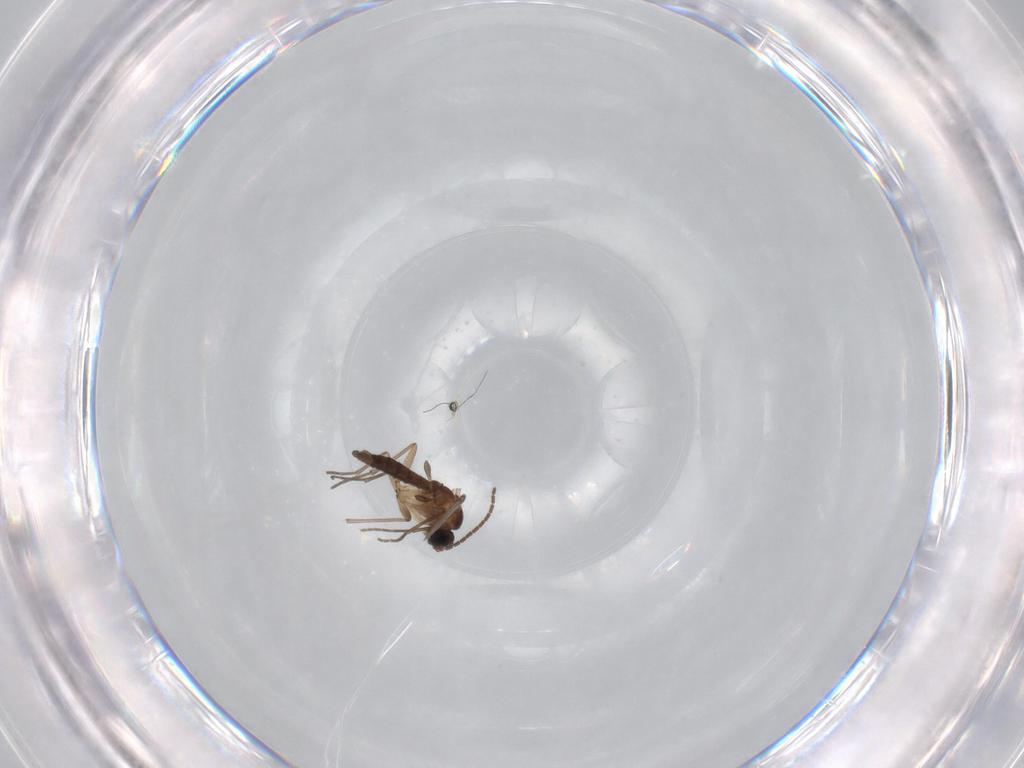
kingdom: Animalia
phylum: Arthropoda
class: Insecta
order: Diptera
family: Sciaridae
